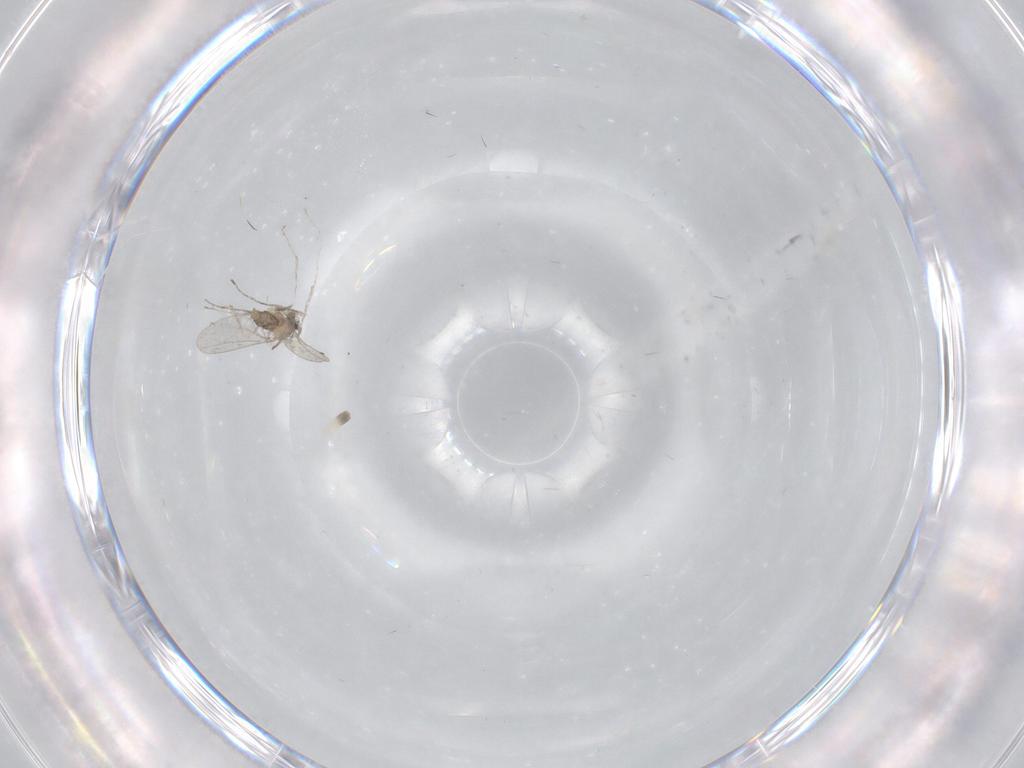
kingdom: Animalia
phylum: Arthropoda
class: Insecta
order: Diptera
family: Cecidomyiidae
